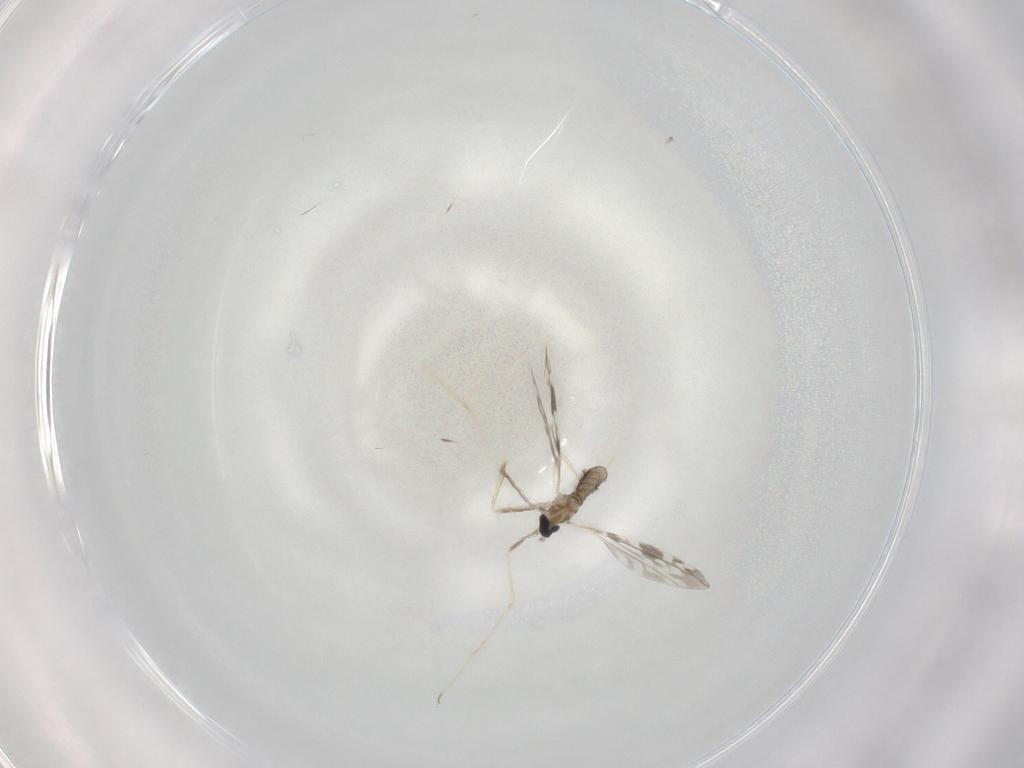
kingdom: Animalia
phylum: Arthropoda
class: Insecta
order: Diptera
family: Cecidomyiidae
